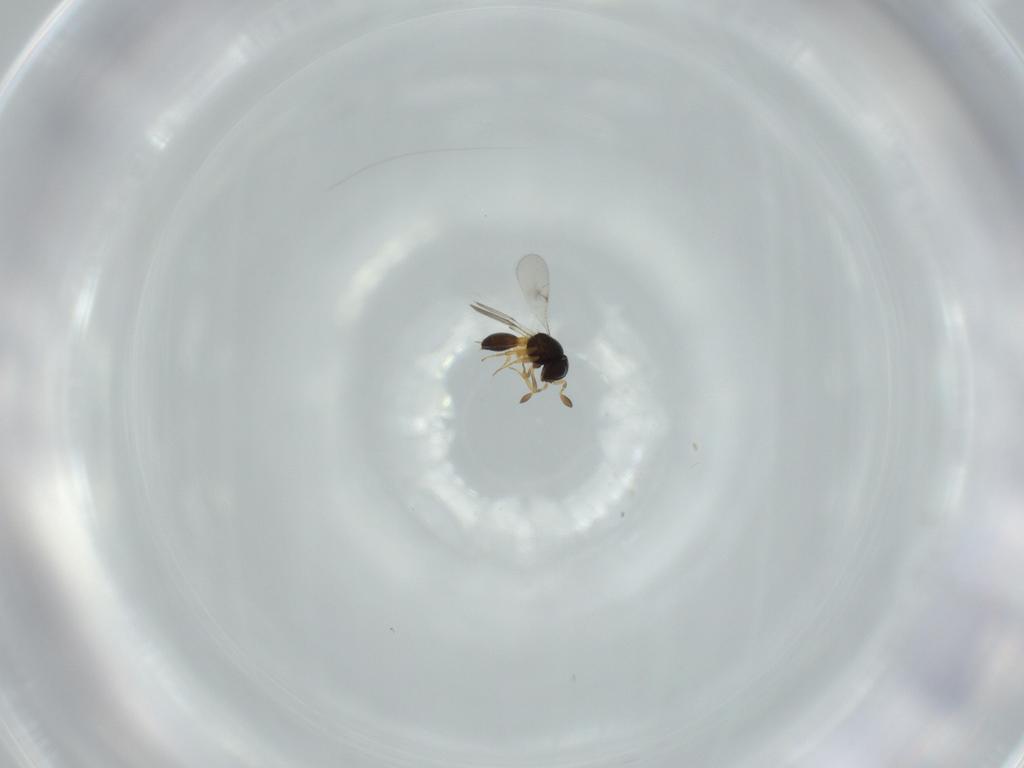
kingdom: Animalia
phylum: Arthropoda
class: Insecta
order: Hymenoptera
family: Scelionidae
